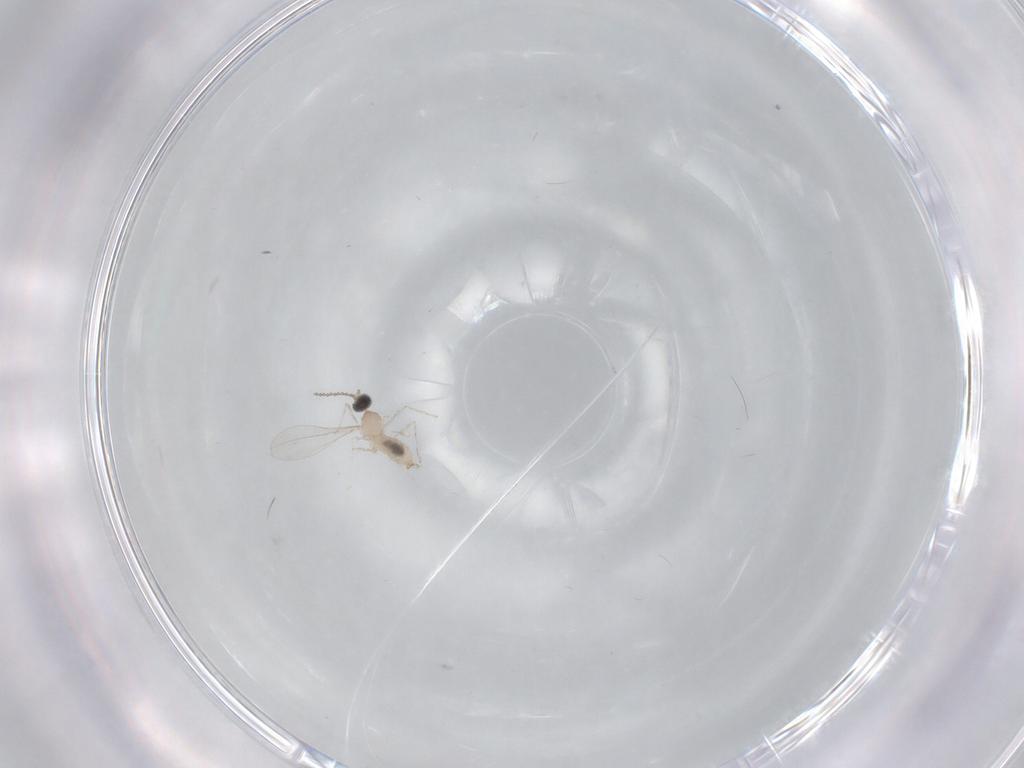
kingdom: Animalia
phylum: Arthropoda
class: Insecta
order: Diptera
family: Cecidomyiidae
